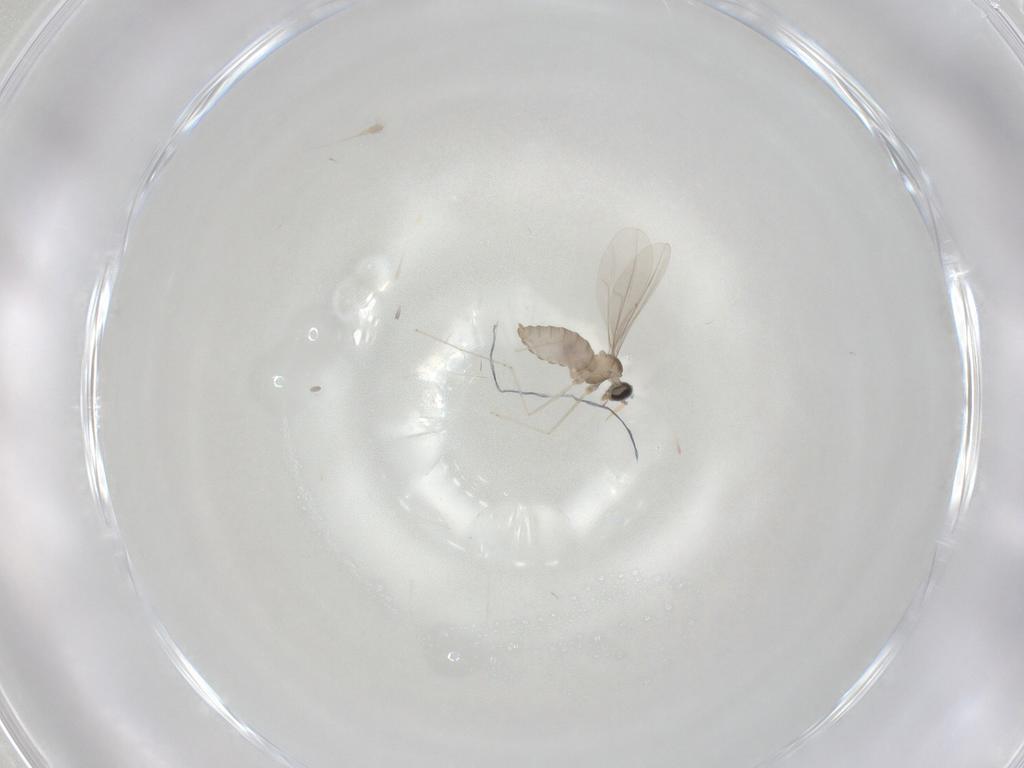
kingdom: Animalia
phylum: Arthropoda
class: Insecta
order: Diptera
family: Cecidomyiidae
